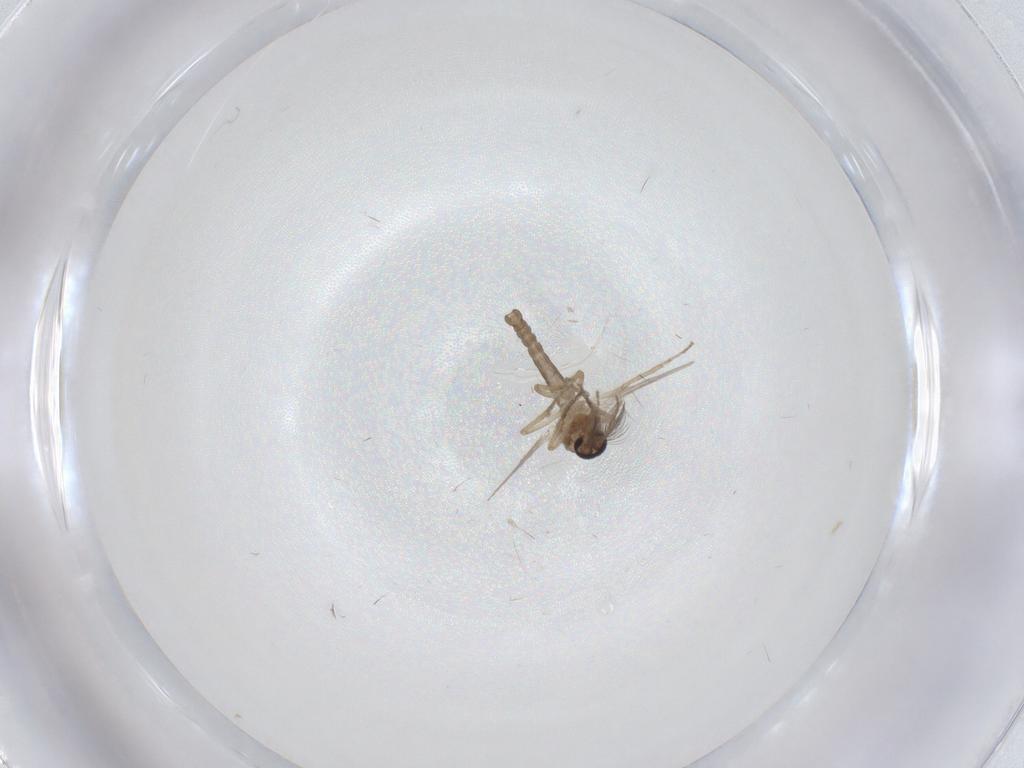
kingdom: Animalia
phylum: Arthropoda
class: Insecta
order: Diptera
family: Ceratopogonidae
